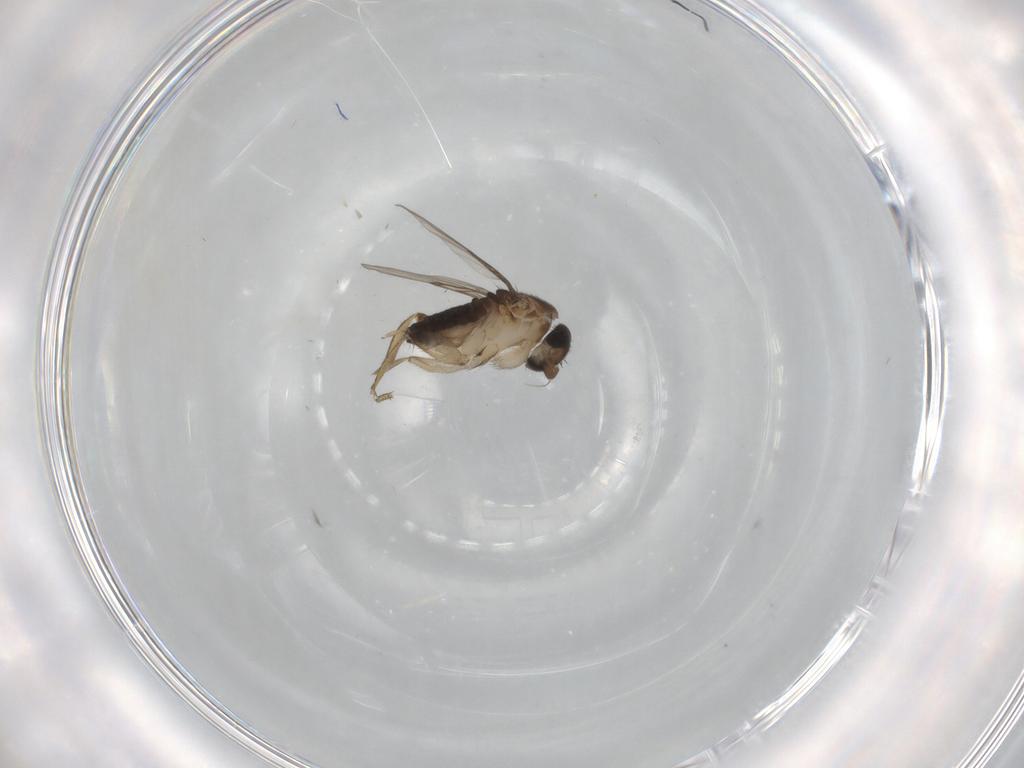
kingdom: Animalia
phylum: Arthropoda
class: Insecta
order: Diptera
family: Phoridae
